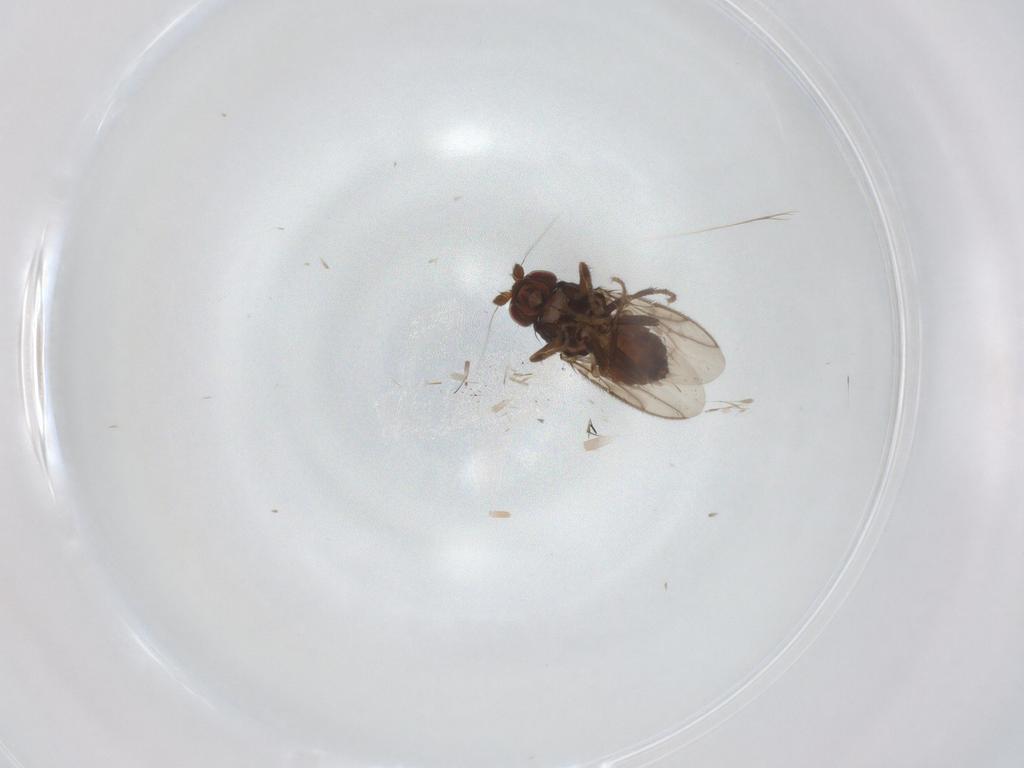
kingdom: Animalia
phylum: Arthropoda
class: Insecta
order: Diptera
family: Sphaeroceridae
